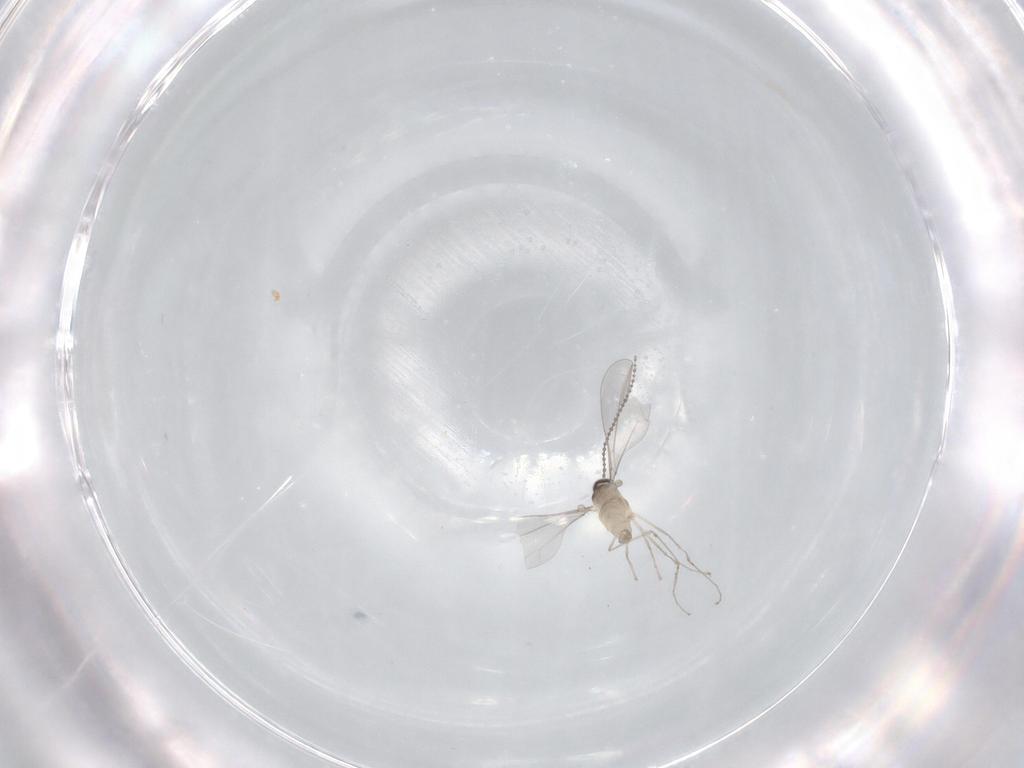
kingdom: Animalia
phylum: Arthropoda
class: Insecta
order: Diptera
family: Cecidomyiidae
